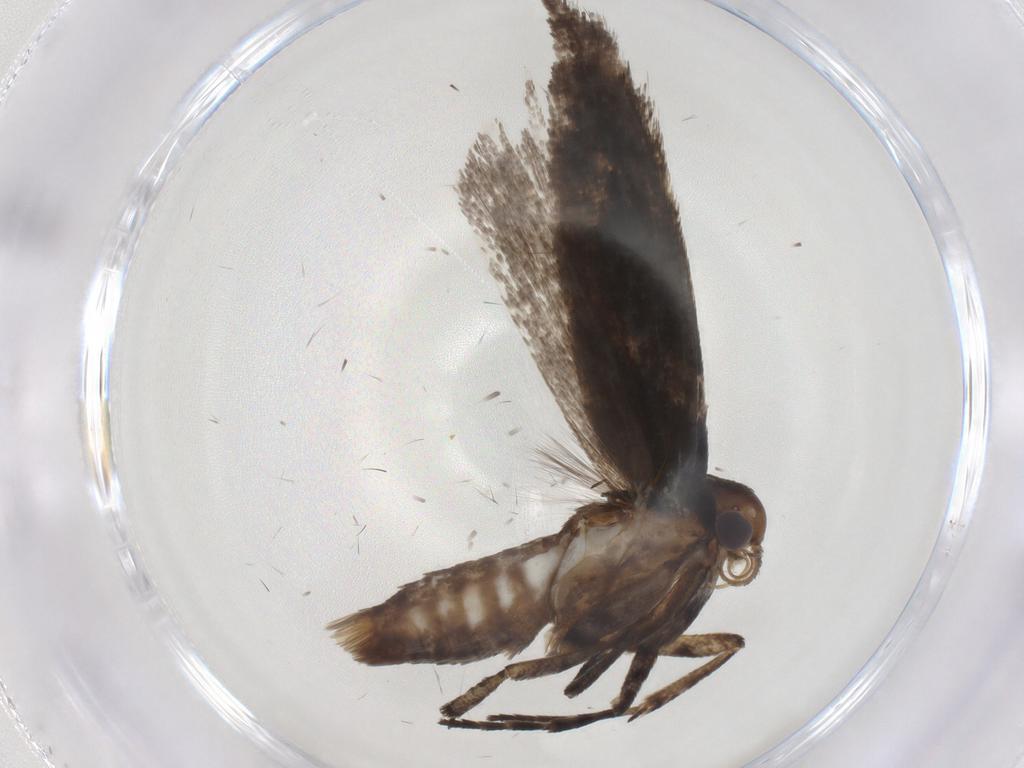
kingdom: Animalia
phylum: Arthropoda
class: Insecta
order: Lepidoptera
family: Gelechiidae
